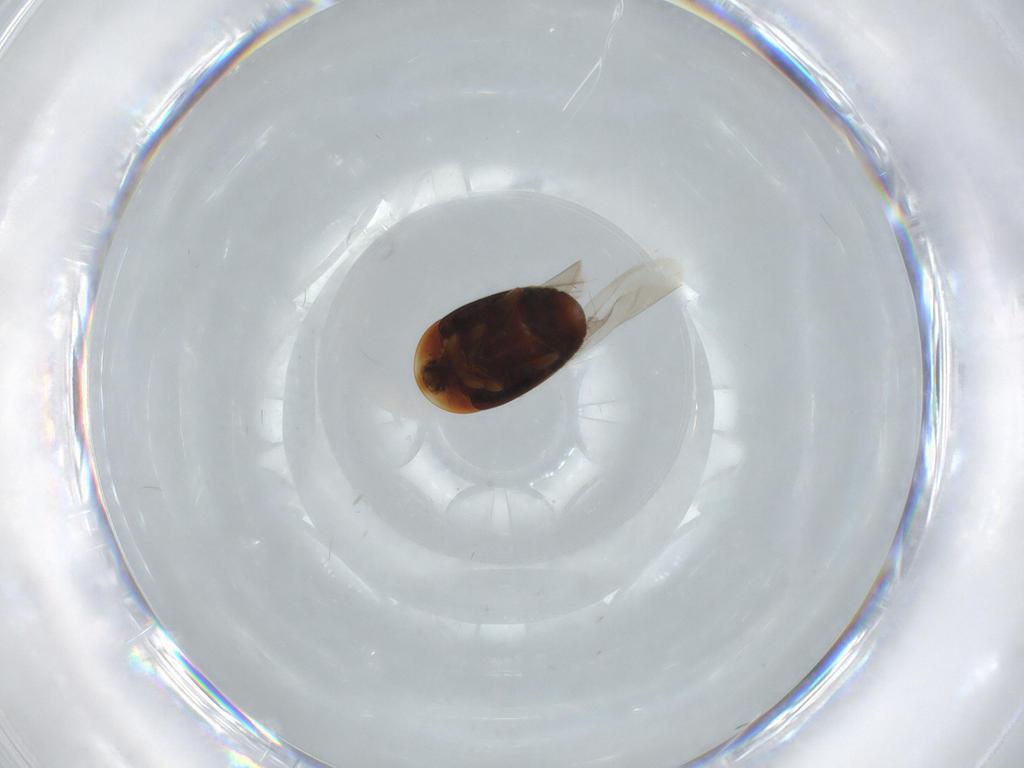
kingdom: Animalia
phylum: Arthropoda
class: Insecta
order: Coleoptera
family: Corylophidae
